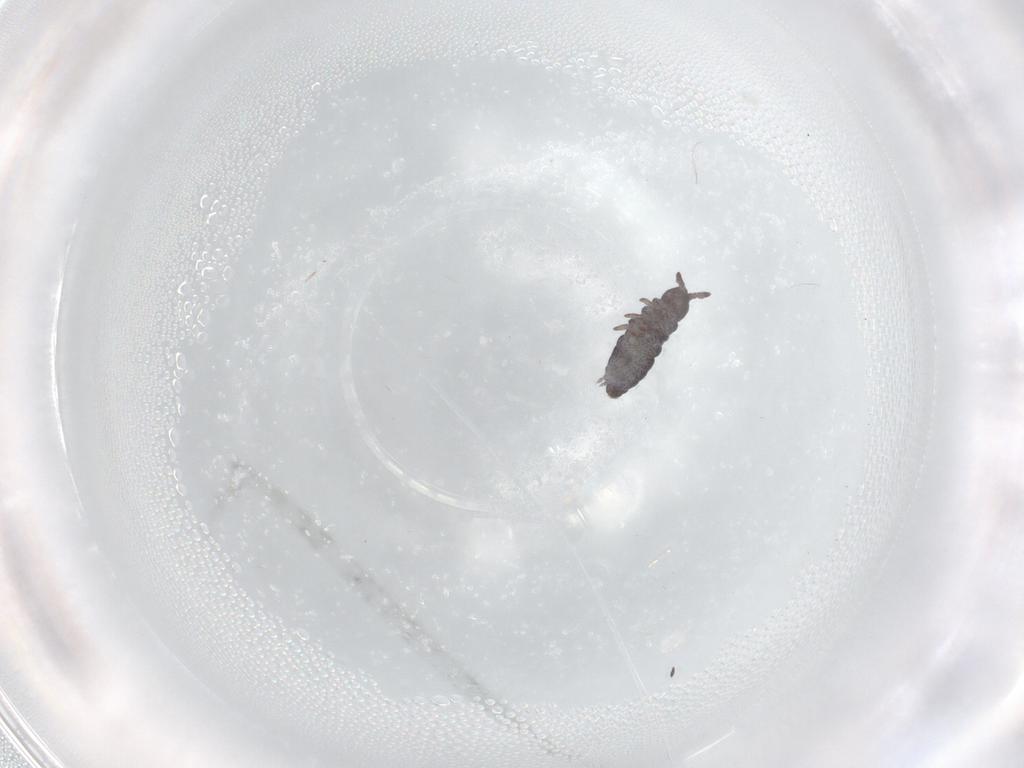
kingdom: Animalia
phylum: Arthropoda
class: Collembola
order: Poduromorpha
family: Hypogastruridae
